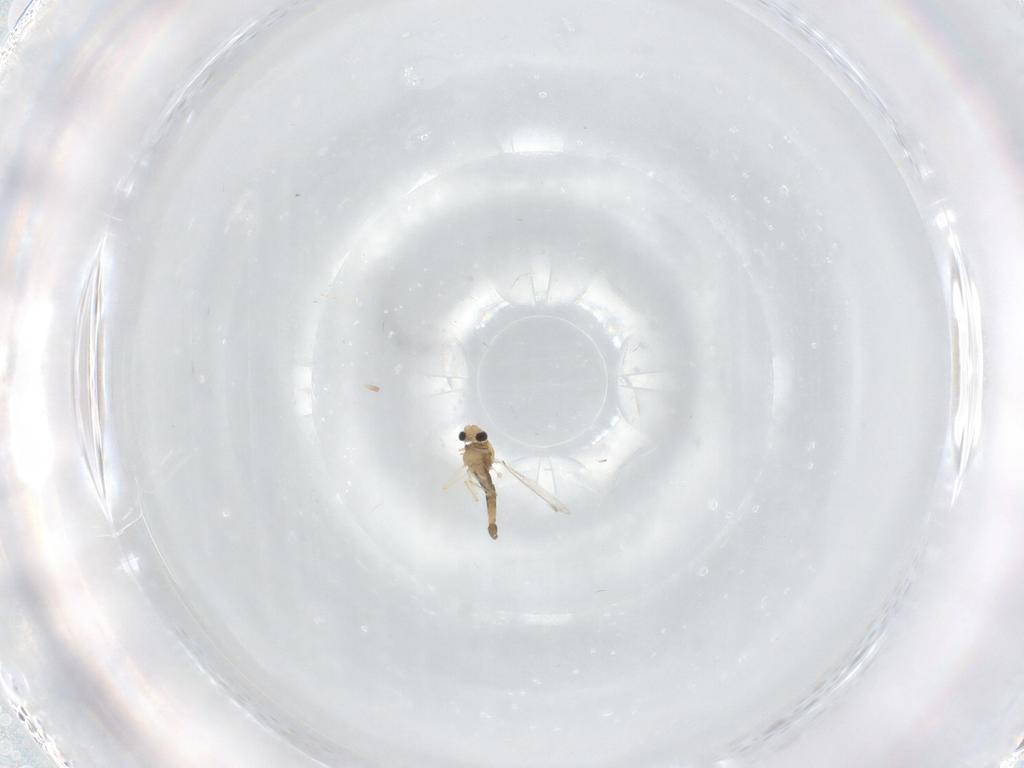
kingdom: Animalia
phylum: Arthropoda
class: Insecta
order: Diptera
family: Chironomidae
